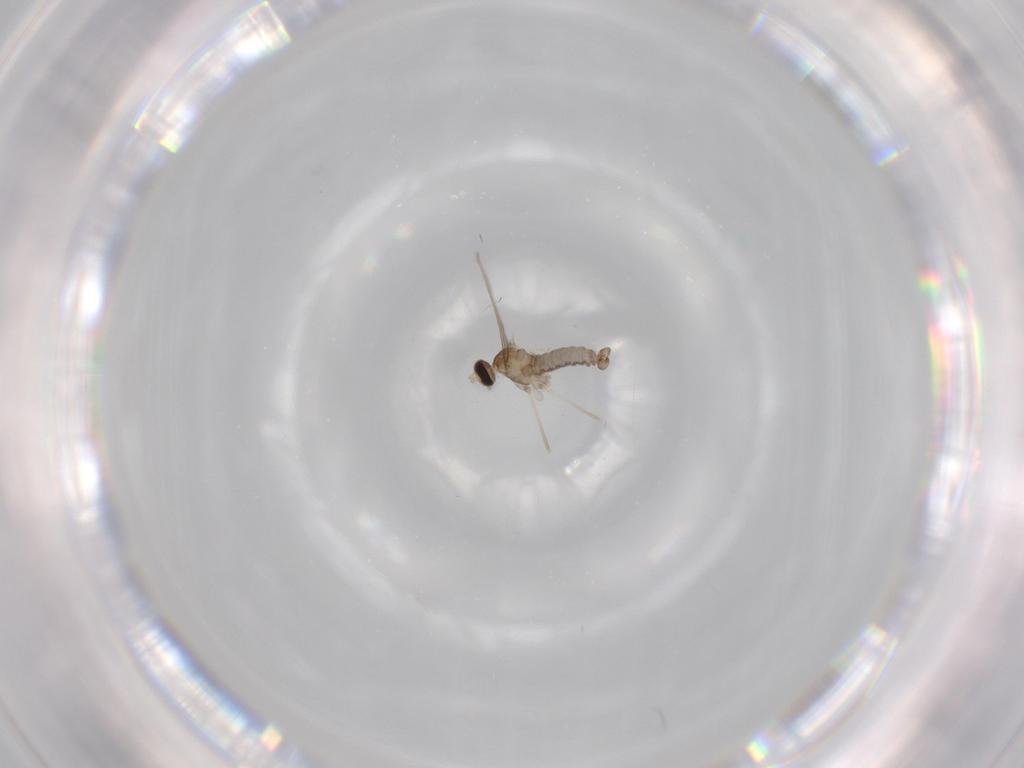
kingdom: Animalia
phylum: Arthropoda
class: Insecta
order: Diptera
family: Cecidomyiidae
